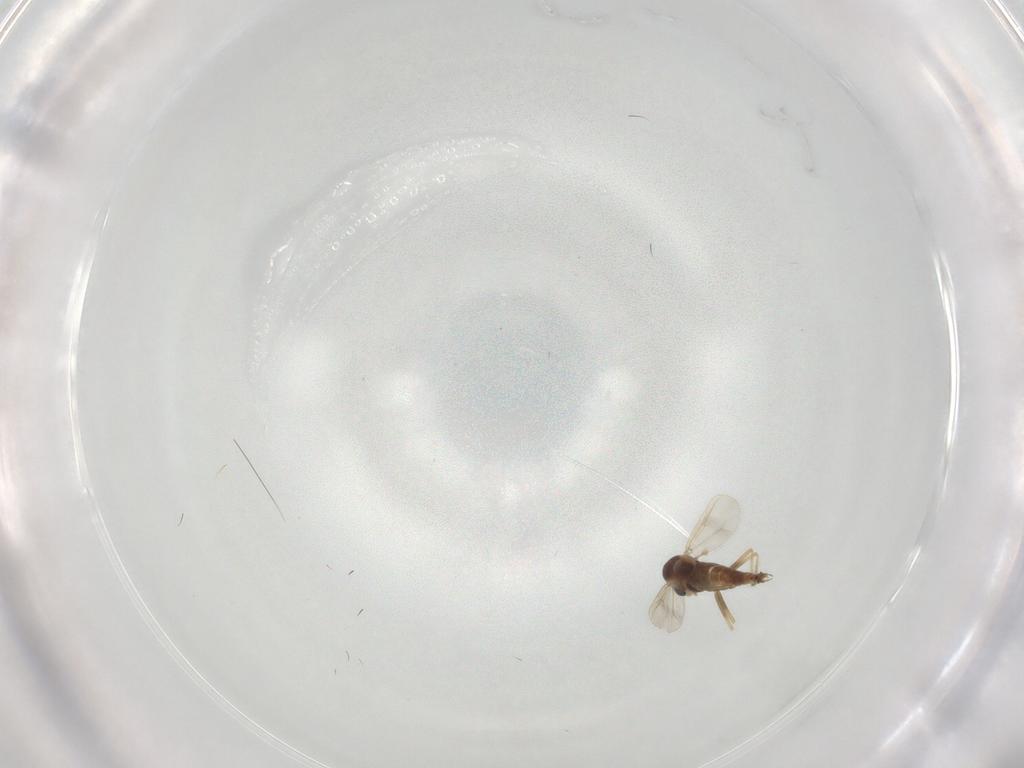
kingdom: Animalia
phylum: Arthropoda
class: Insecta
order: Diptera
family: Chironomidae
